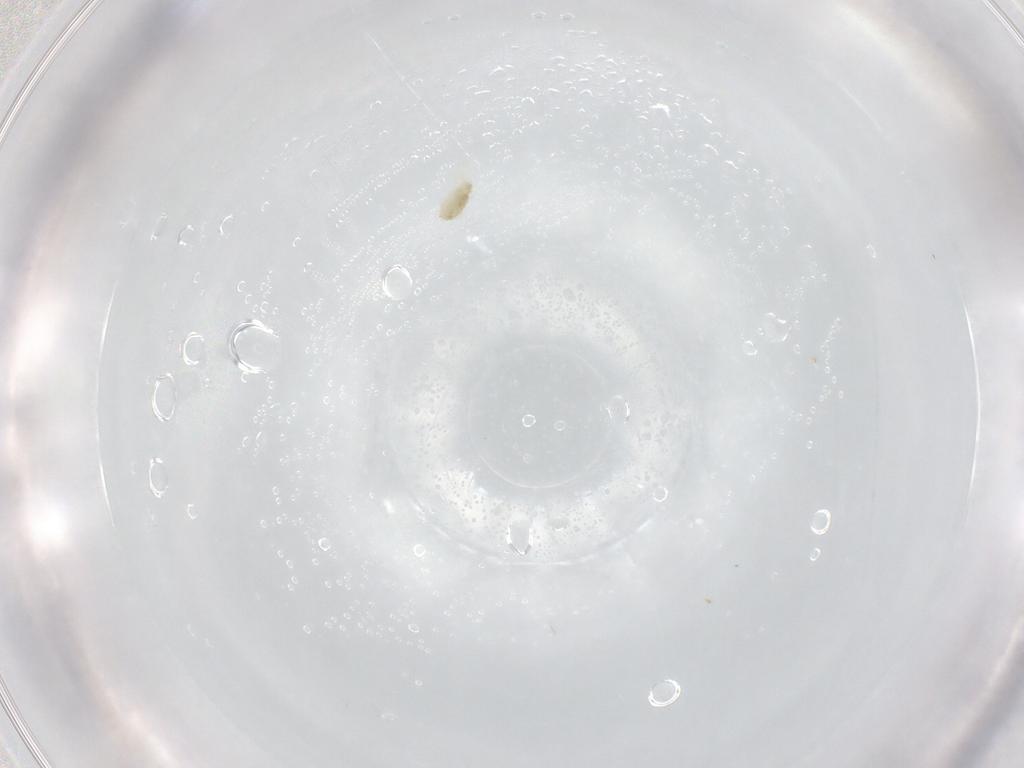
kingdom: Animalia
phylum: Arthropoda
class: Arachnida
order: Trombidiformes
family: Eupodidae
